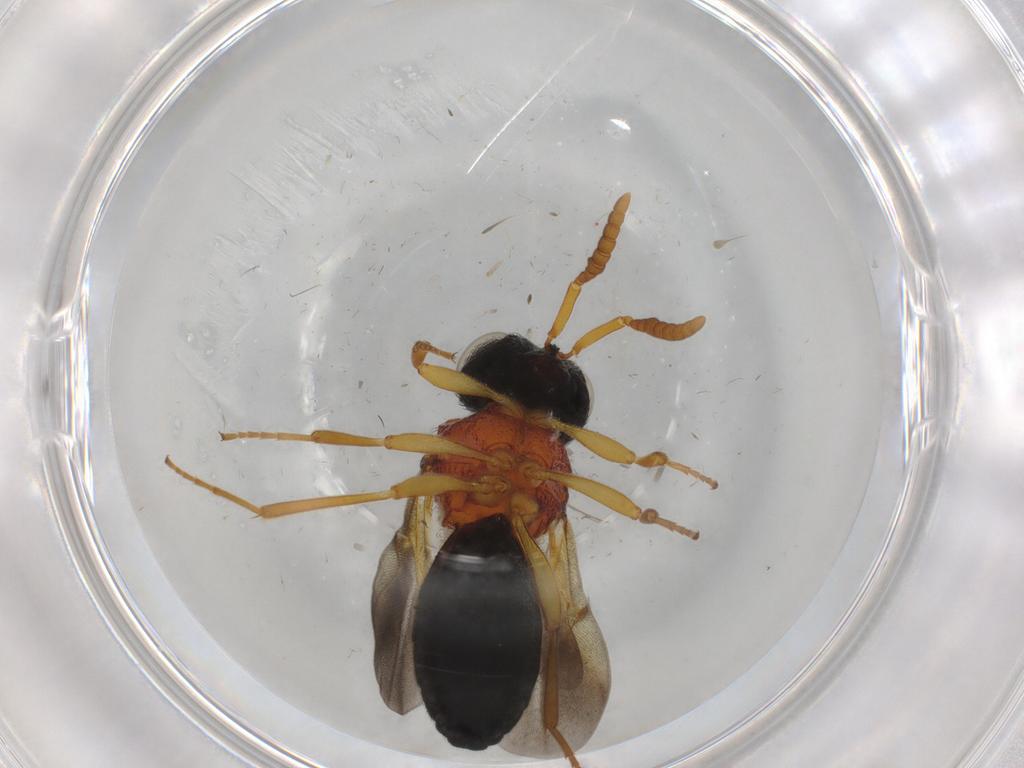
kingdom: Animalia
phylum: Arthropoda
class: Insecta
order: Hymenoptera
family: Scelionidae
